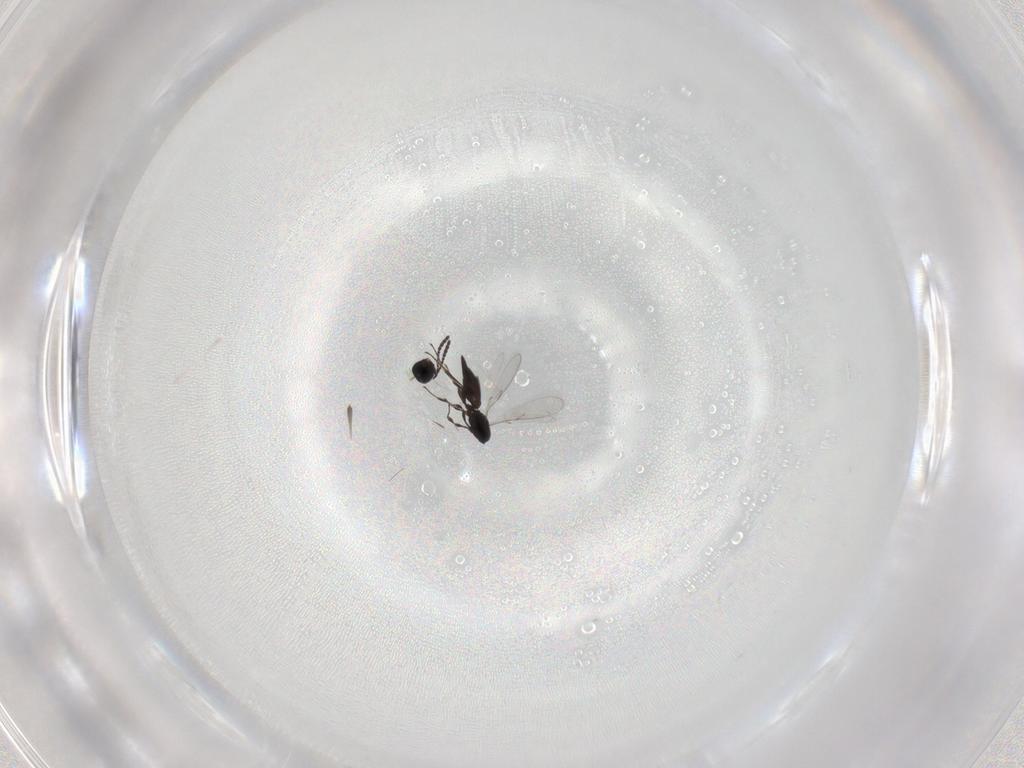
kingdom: Animalia
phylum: Arthropoda
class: Insecta
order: Hymenoptera
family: Scelionidae
